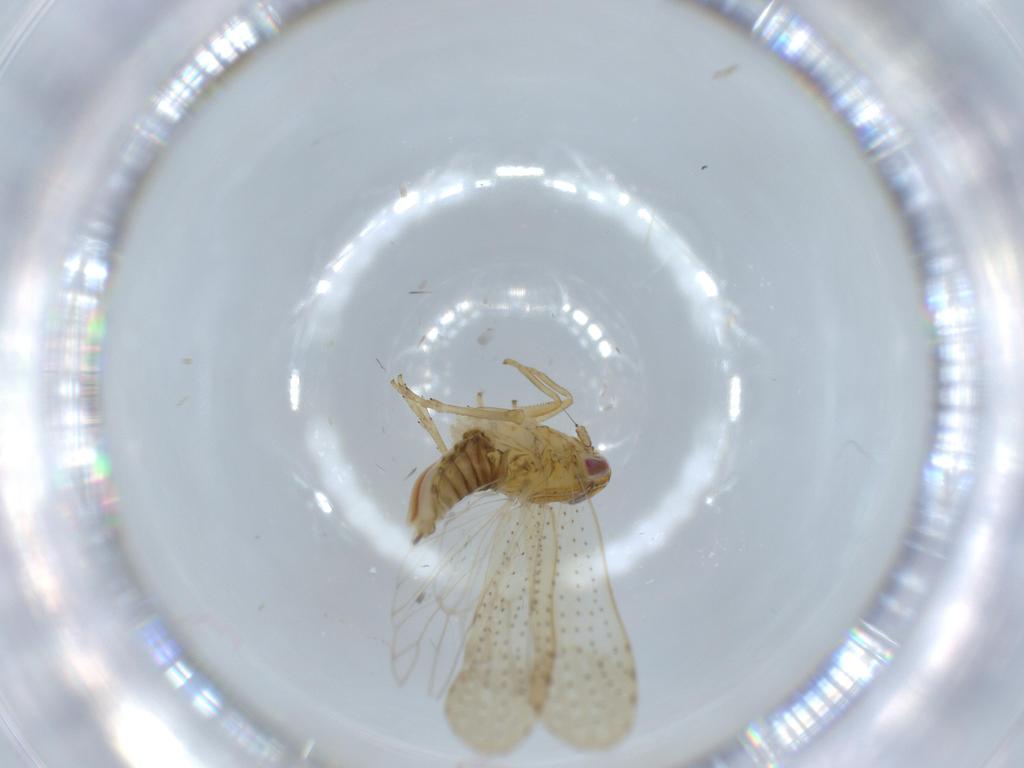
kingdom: Animalia
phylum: Arthropoda
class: Insecta
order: Hemiptera
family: Delphacidae
